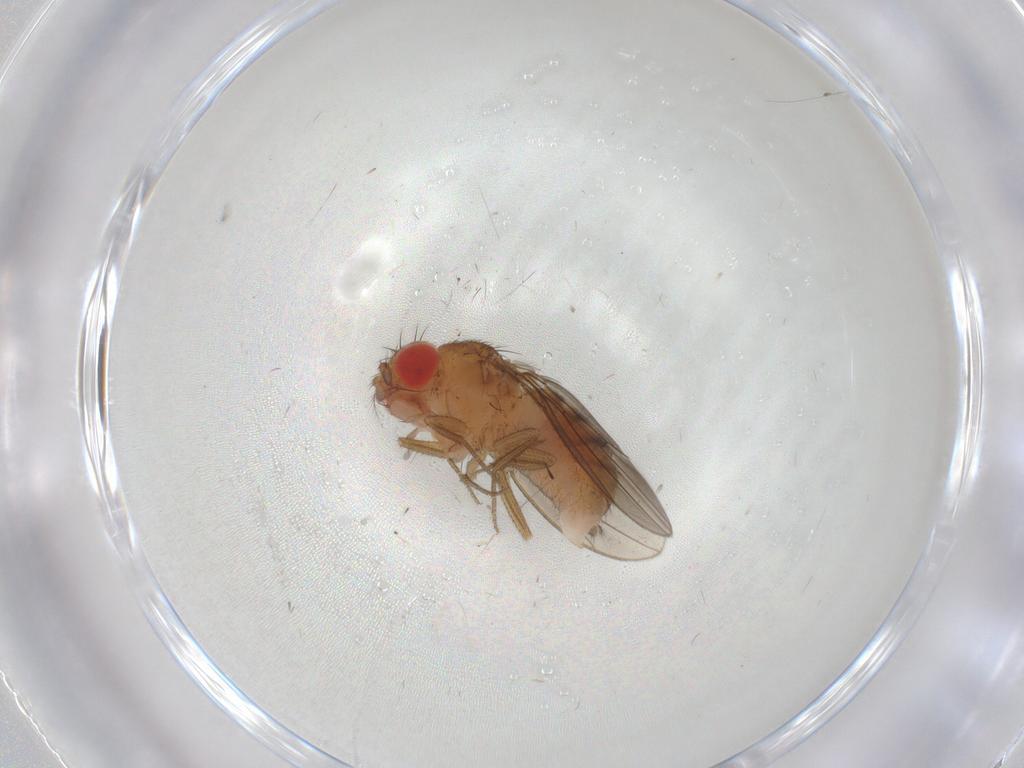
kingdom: Animalia
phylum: Arthropoda
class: Insecta
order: Diptera
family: Drosophilidae
